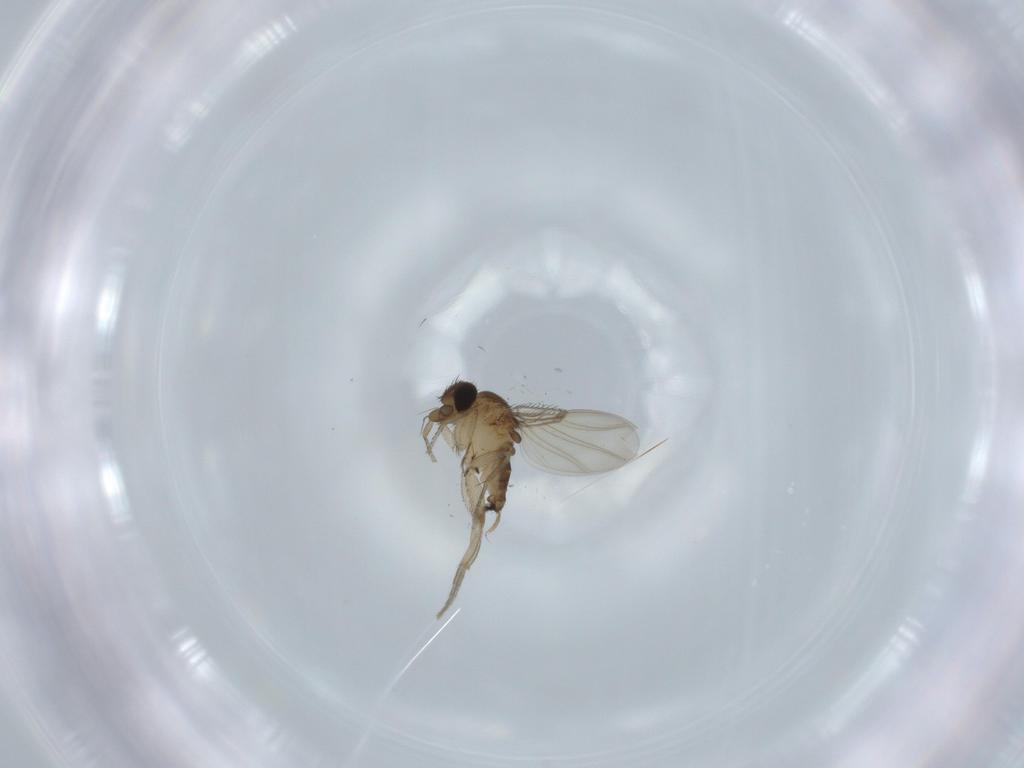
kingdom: Animalia
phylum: Arthropoda
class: Insecta
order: Diptera
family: Phoridae
